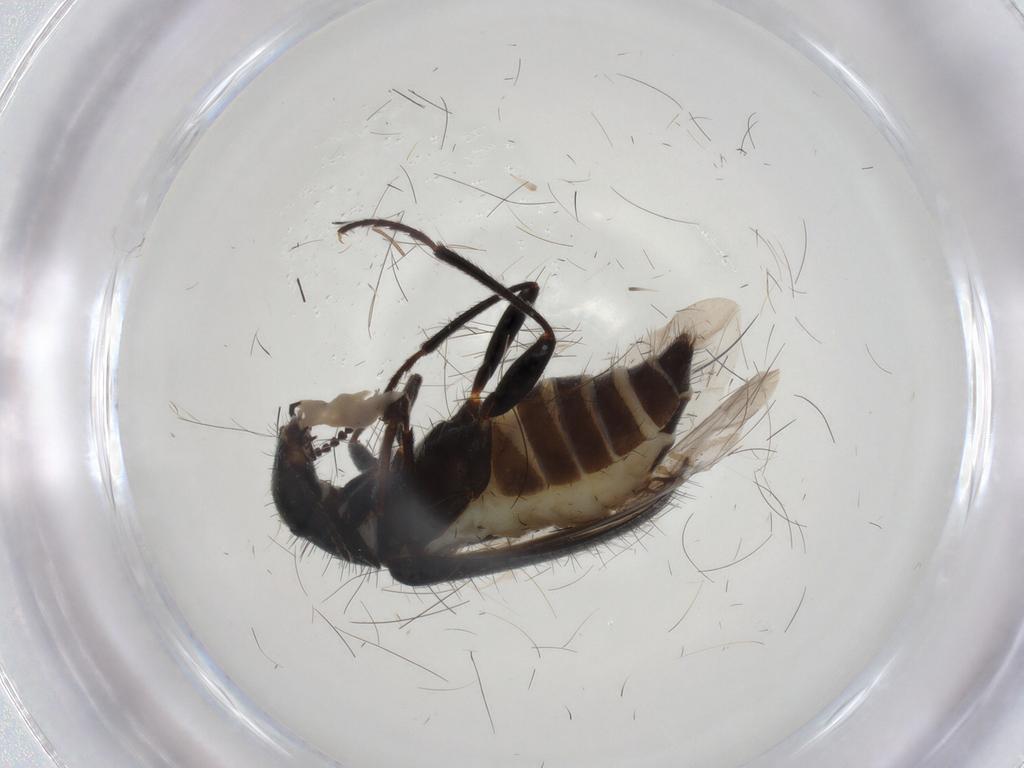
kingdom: Animalia
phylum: Arthropoda
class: Insecta
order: Coleoptera
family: Melyridae
